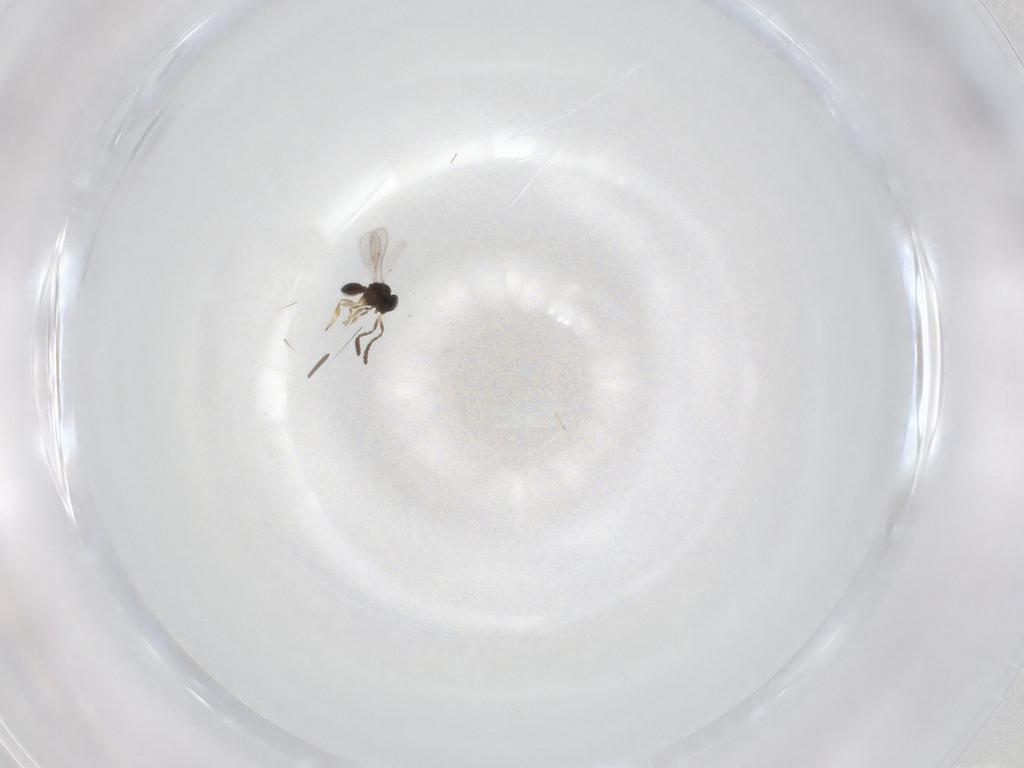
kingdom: Animalia
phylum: Arthropoda
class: Insecta
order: Hymenoptera
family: Scelionidae
